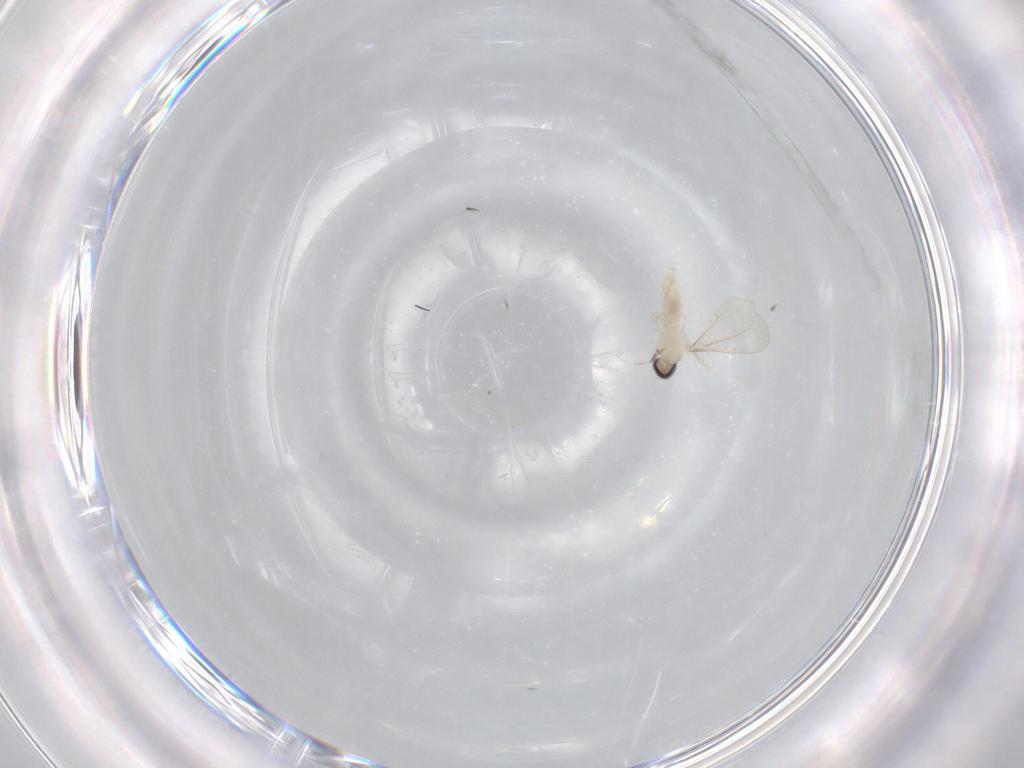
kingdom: Animalia
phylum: Arthropoda
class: Insecta
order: Diptera
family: Cecidomyiidae
